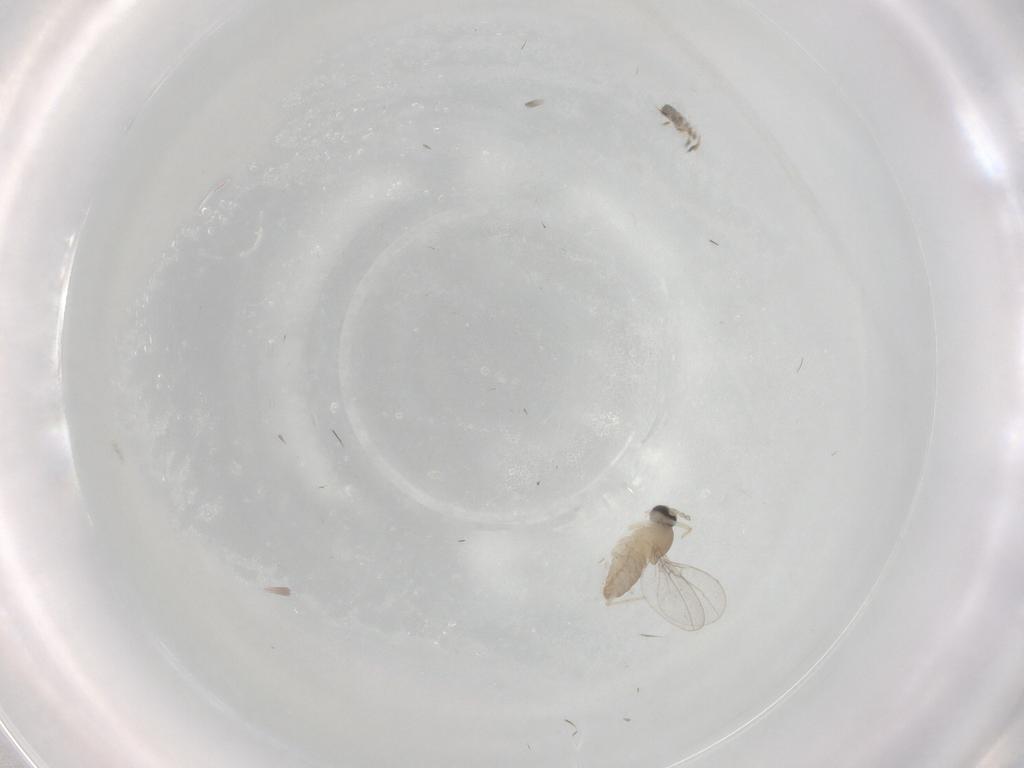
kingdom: Animalia
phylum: Arthropoda
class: Insecta
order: Diptera
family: Cecidomyiidae
